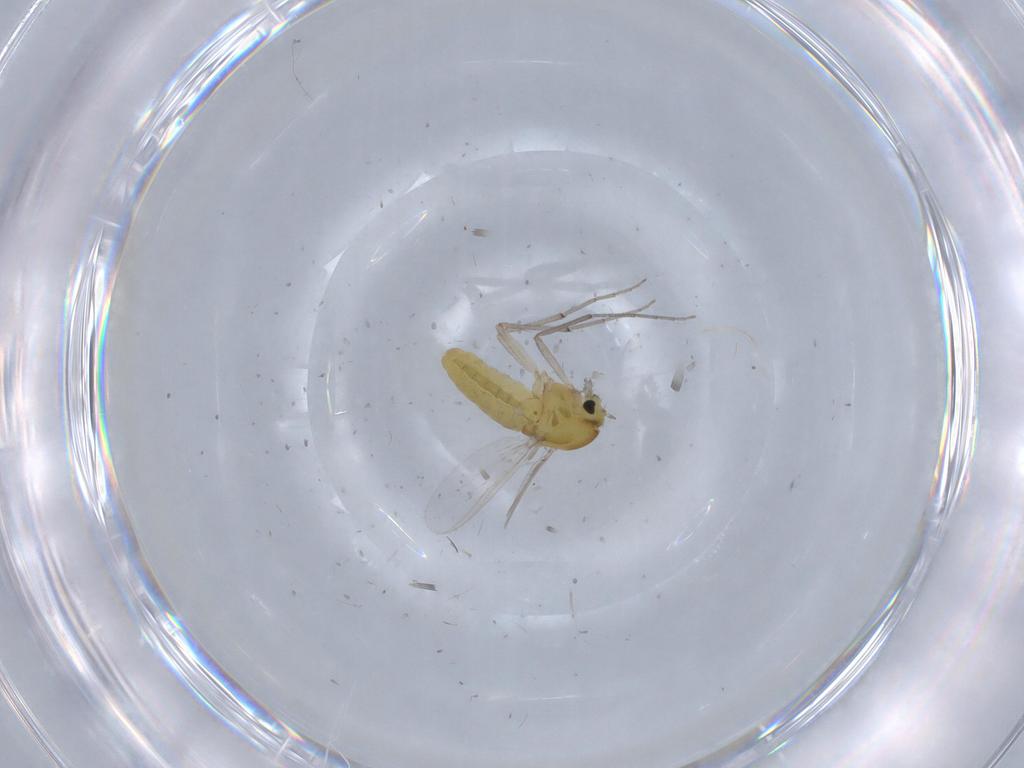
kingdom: Animalia
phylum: Arthropoda
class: Insecta
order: Diptera
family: Chironomidae
